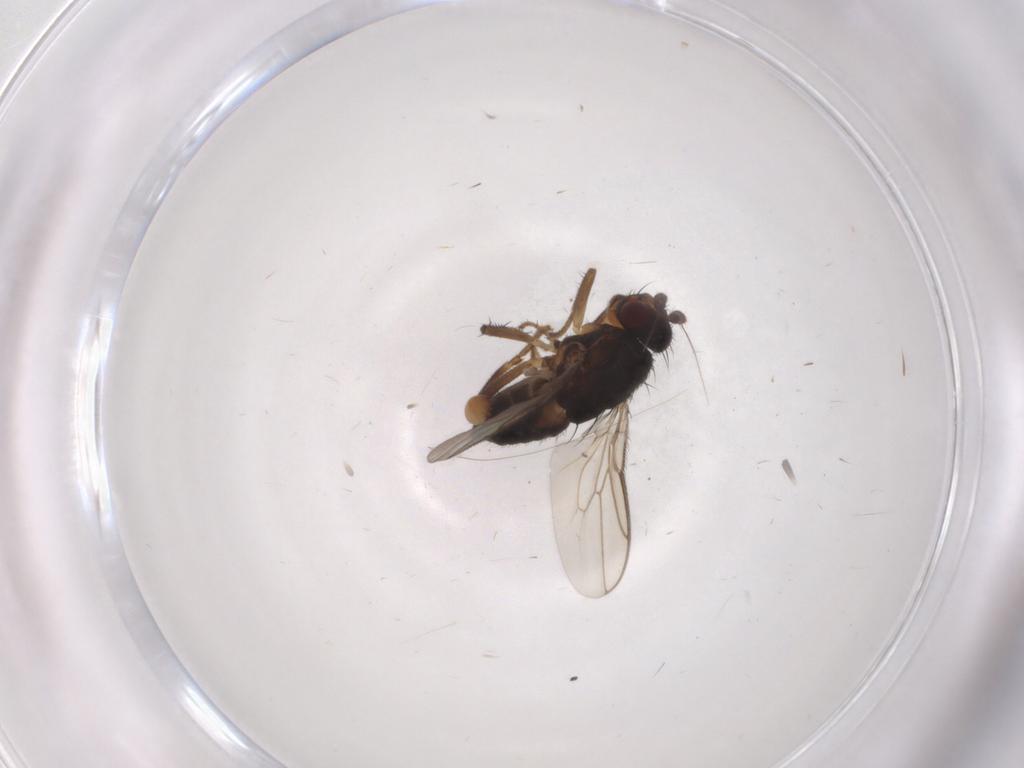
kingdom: Animalia
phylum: Arthropoda
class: Insecta
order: Diptera
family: Sphaeroceridae
